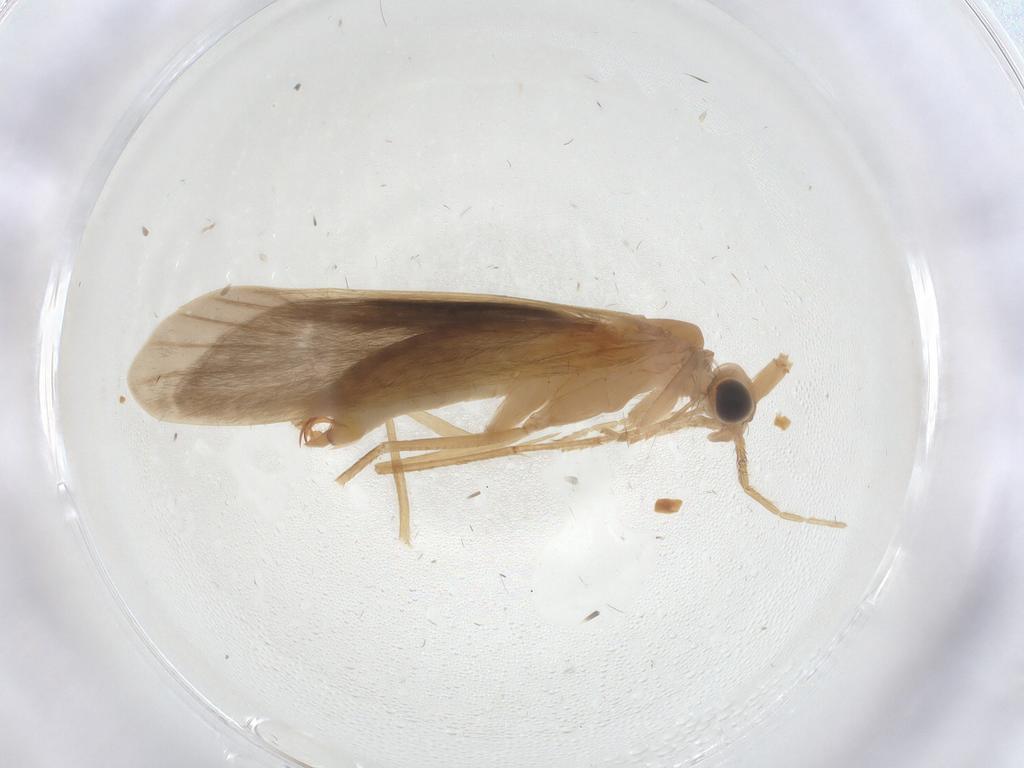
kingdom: Animalia
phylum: Arthropoda
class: Insecta
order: Trichoptera
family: Leptoceridae
